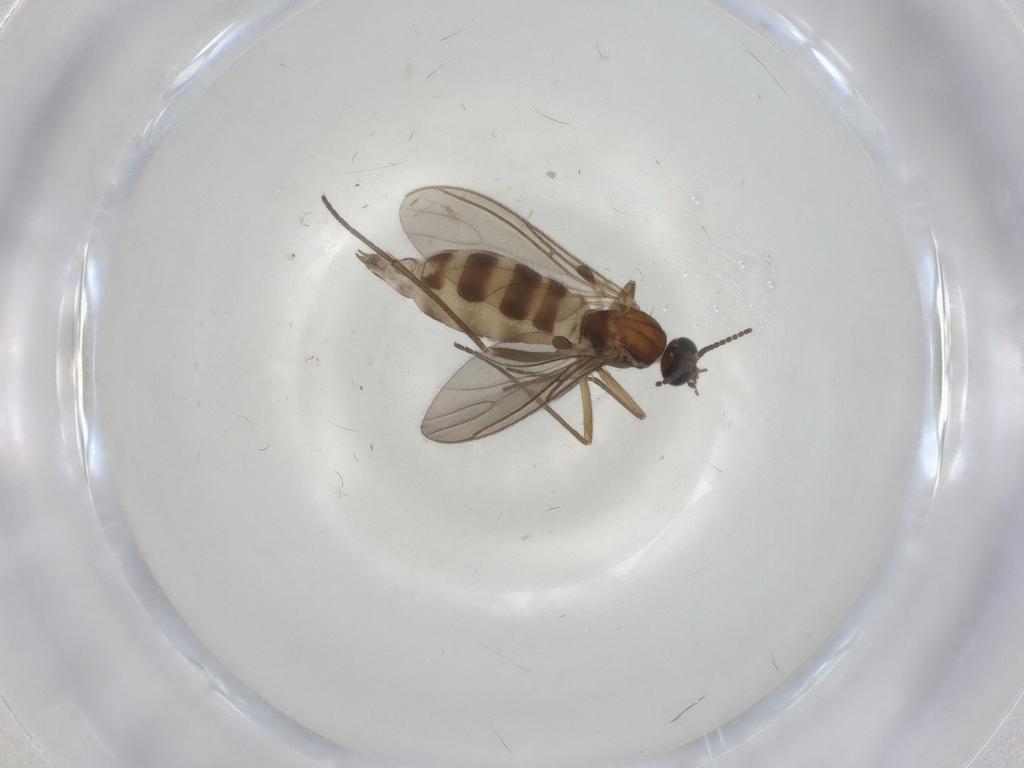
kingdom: Animalia
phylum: Arthropoda
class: Insecta
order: Diptera
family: Sciaridae
